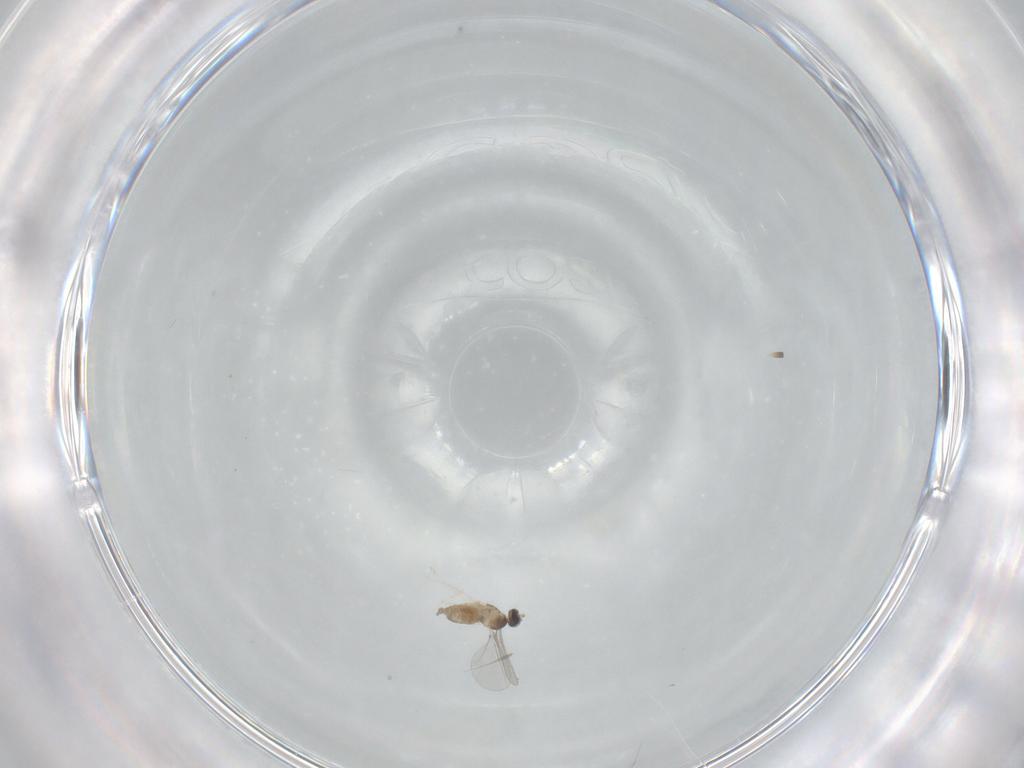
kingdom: Animalia
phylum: Arthropoda
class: Insecta
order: Diptera
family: Cecidomyiidae
